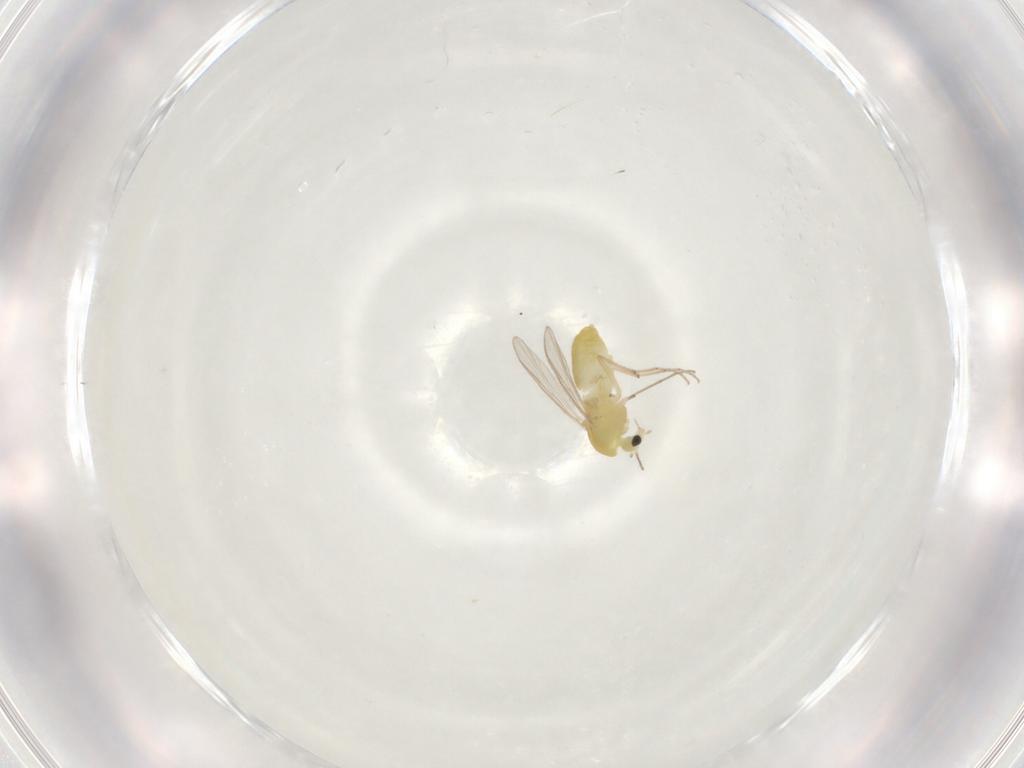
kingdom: Animalia
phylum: Arthropoda
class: Insecta
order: Diptera
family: Chironomidae
